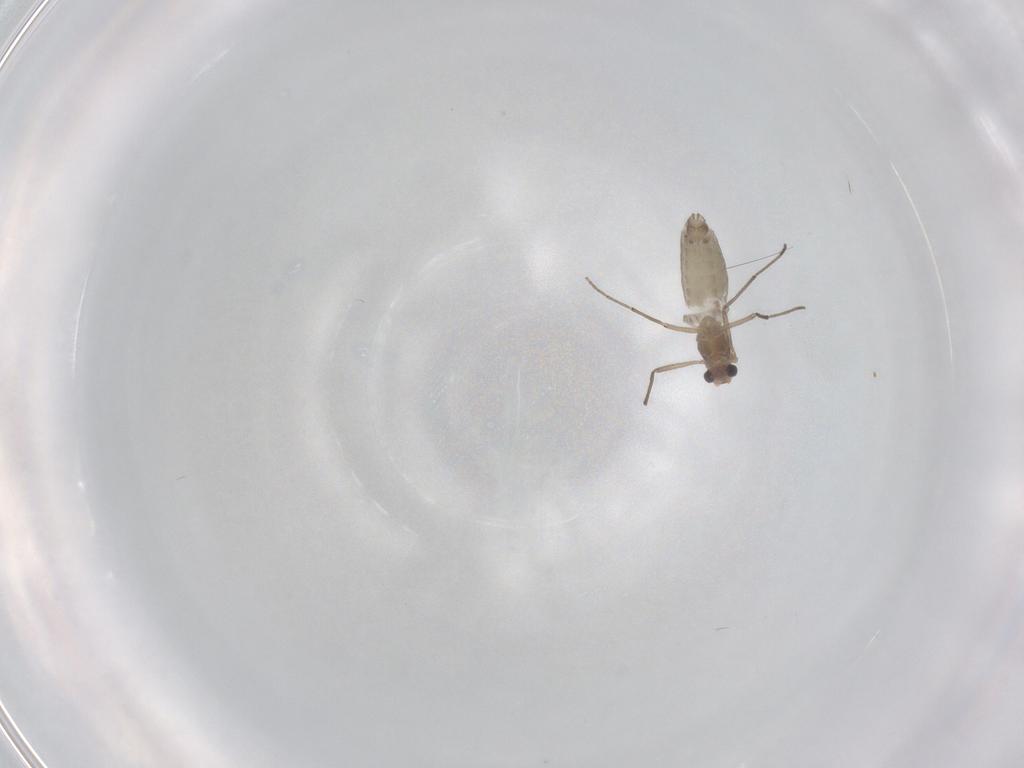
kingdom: Animalia
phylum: Arthropoda
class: Insecta
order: Diptera
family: Chironomidae
